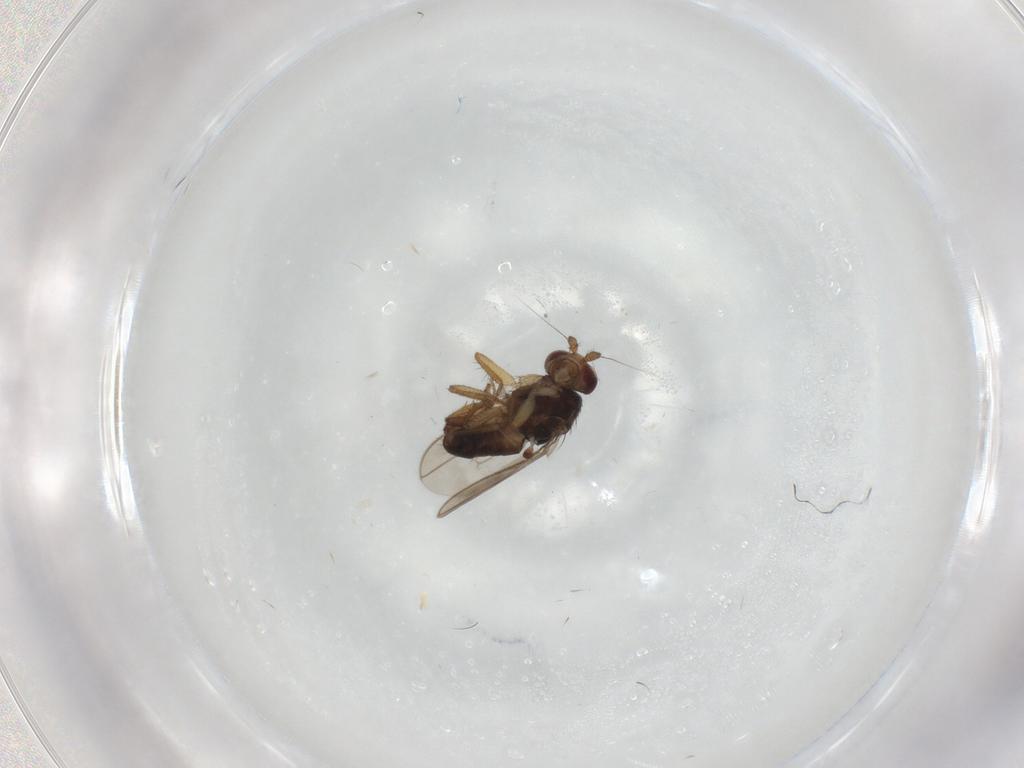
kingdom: Animalia
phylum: Arthropoda
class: Insecta
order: Diptera
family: Sphaeroceridae
